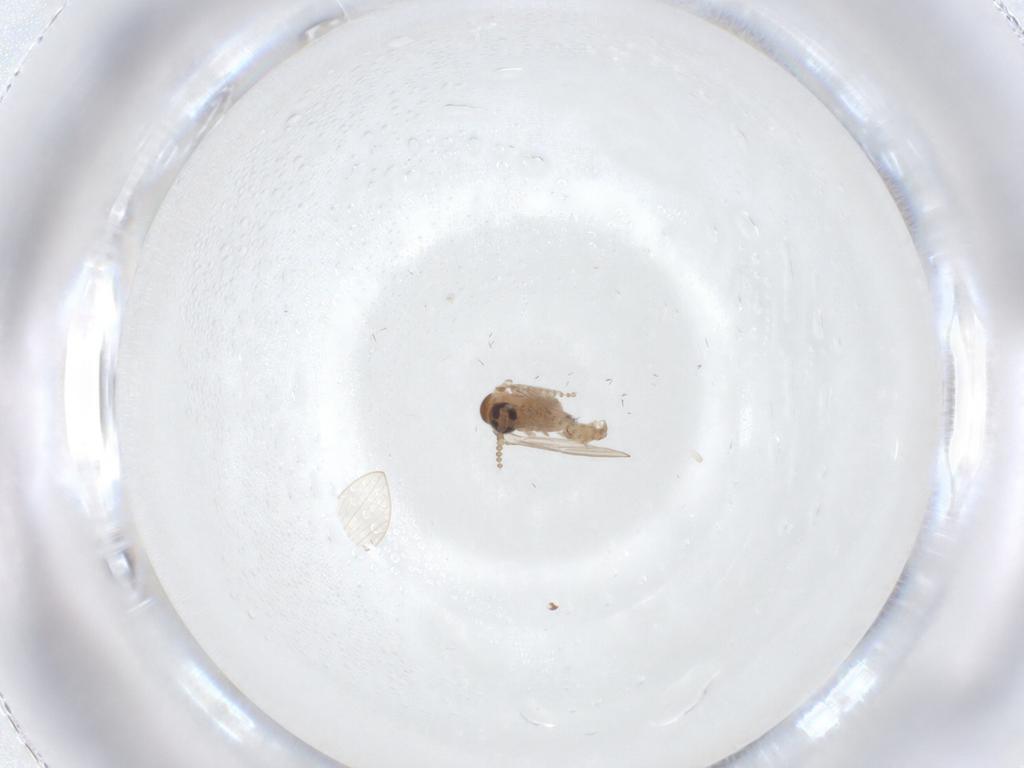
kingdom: Animalia
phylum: Arthropoda
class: Insecta
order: Diptera
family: Psychodidae
